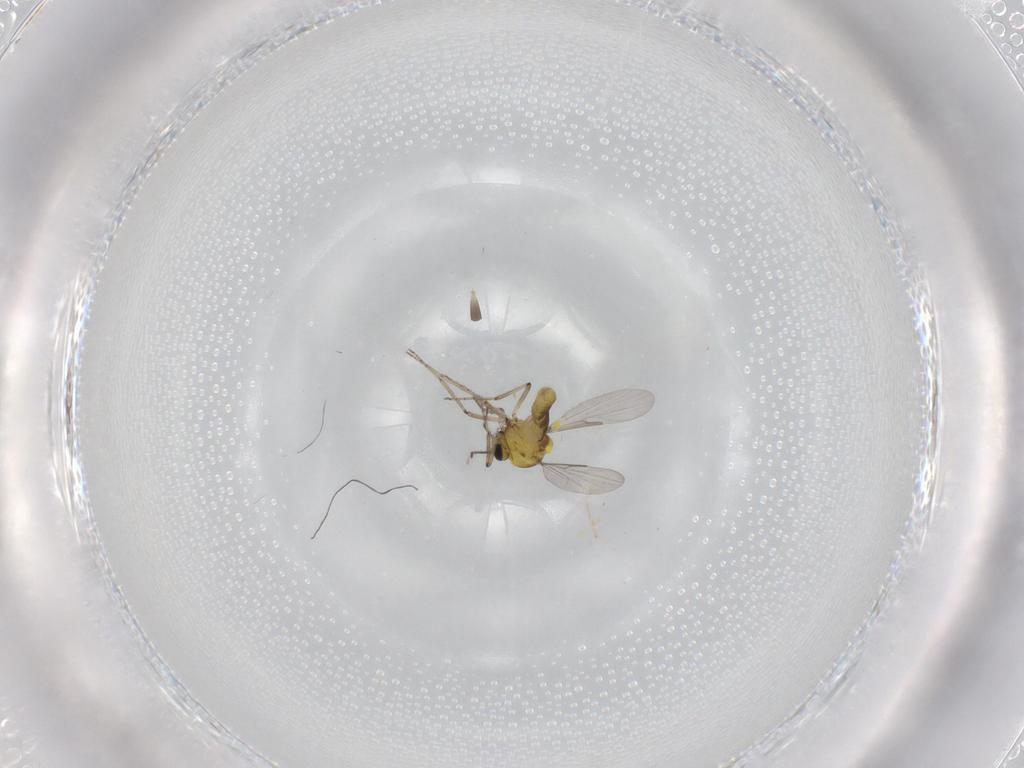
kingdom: Animalia
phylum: Arthropoda
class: Insecta
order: Diptera
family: Ceratopogonidae
